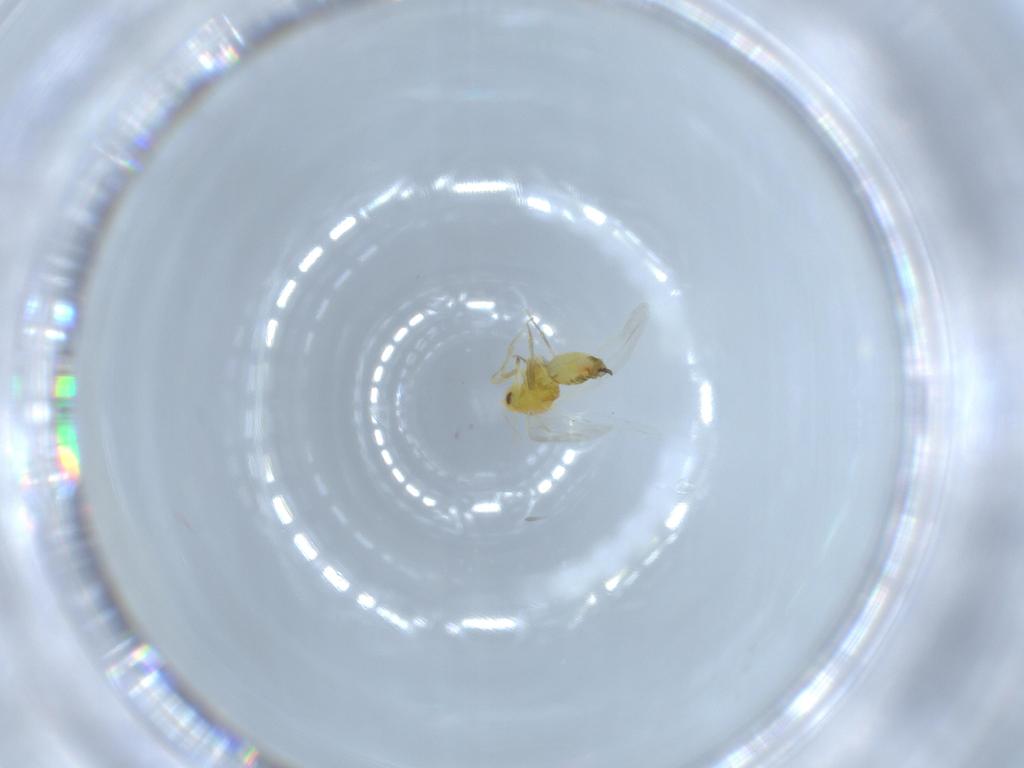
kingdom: Animalia
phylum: Arthropoda
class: Insecta
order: Hemiptera
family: Aleyrodidae
